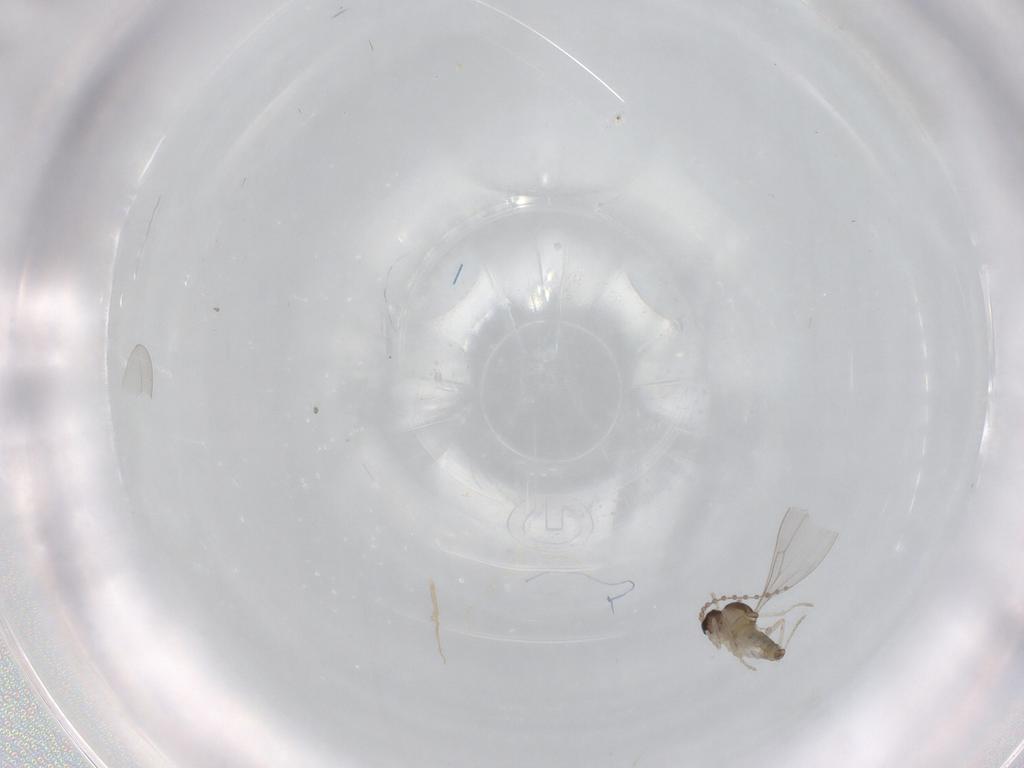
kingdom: Animalia
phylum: Arthropoda
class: Insecta
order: Diptera
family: Cecidomyiidae
